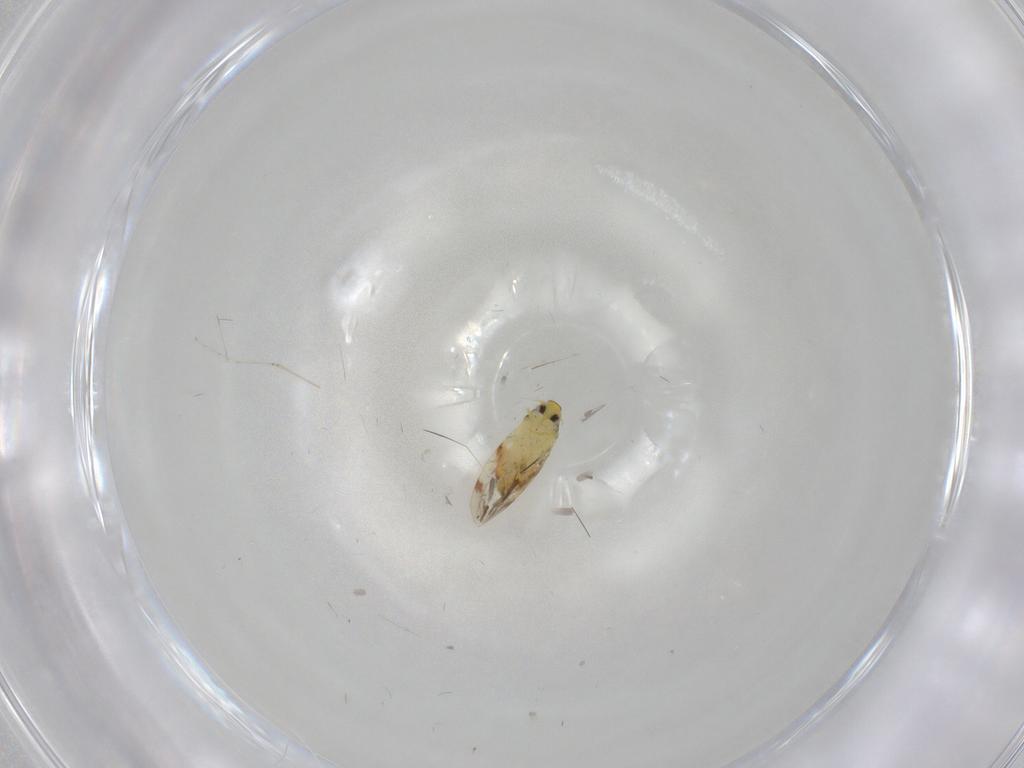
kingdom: Animalia
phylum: Arthropoda
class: Insecta
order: Hemiptera
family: Aleyrodidae
